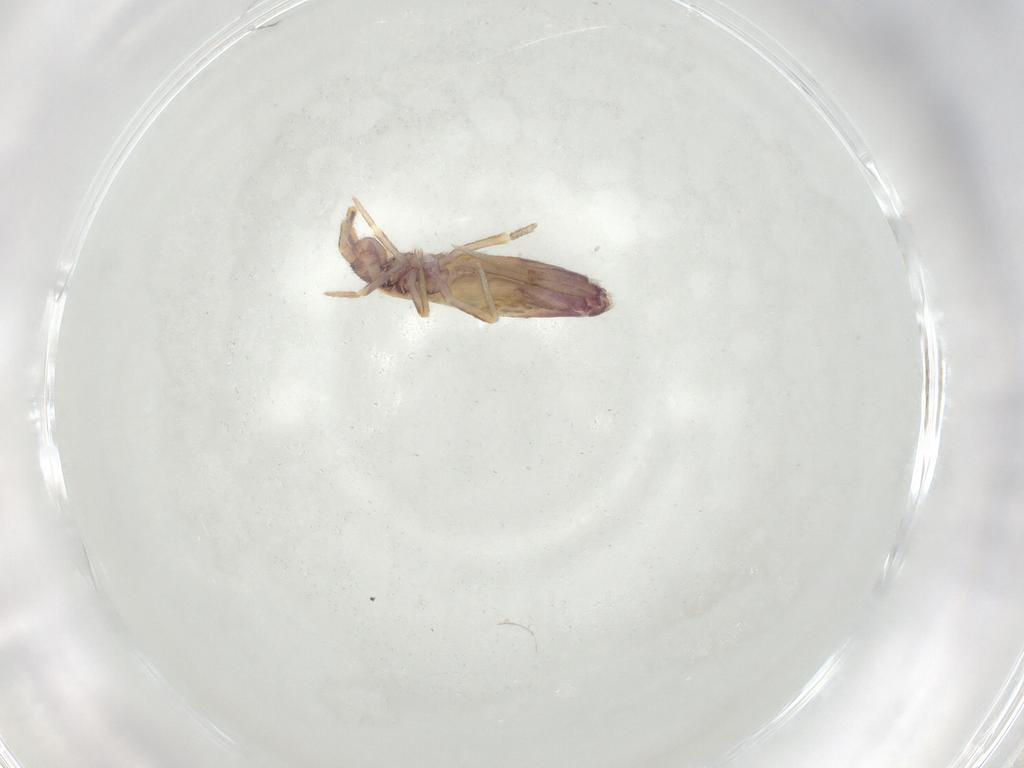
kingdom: Animalia
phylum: Arthropoda
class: Collembola
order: Entomobryomorpha
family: Entomobryidae
